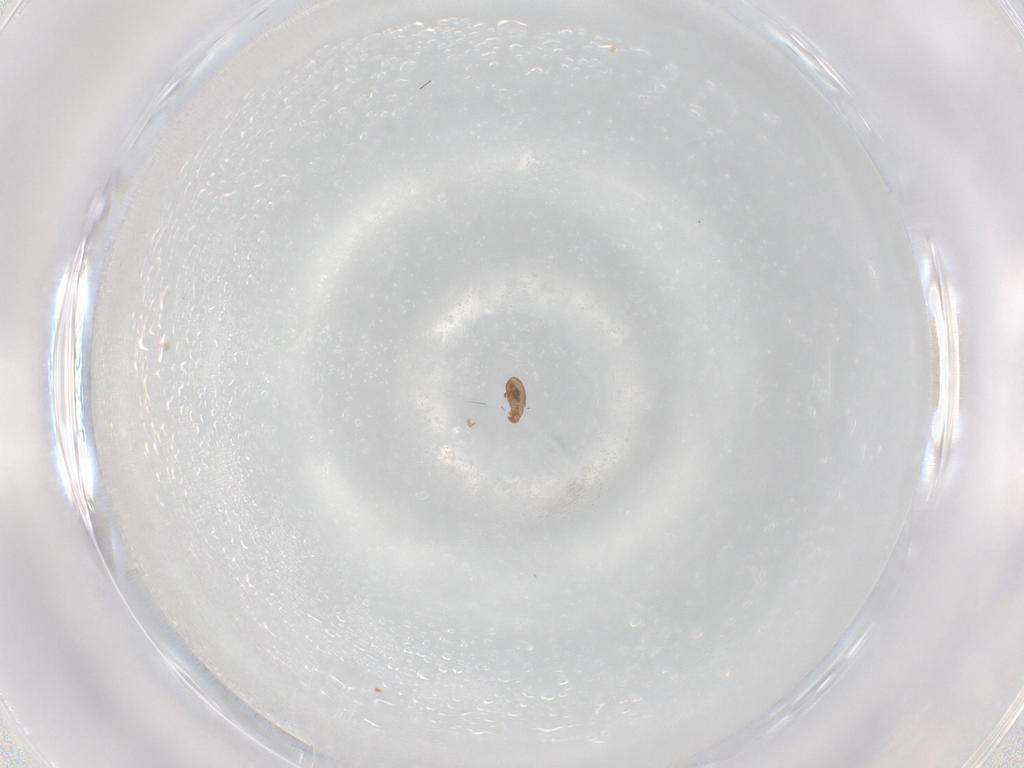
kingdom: Animalia
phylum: Arthropoda
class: Arachnida
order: Sarcoptiformes
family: Eremaeidae
